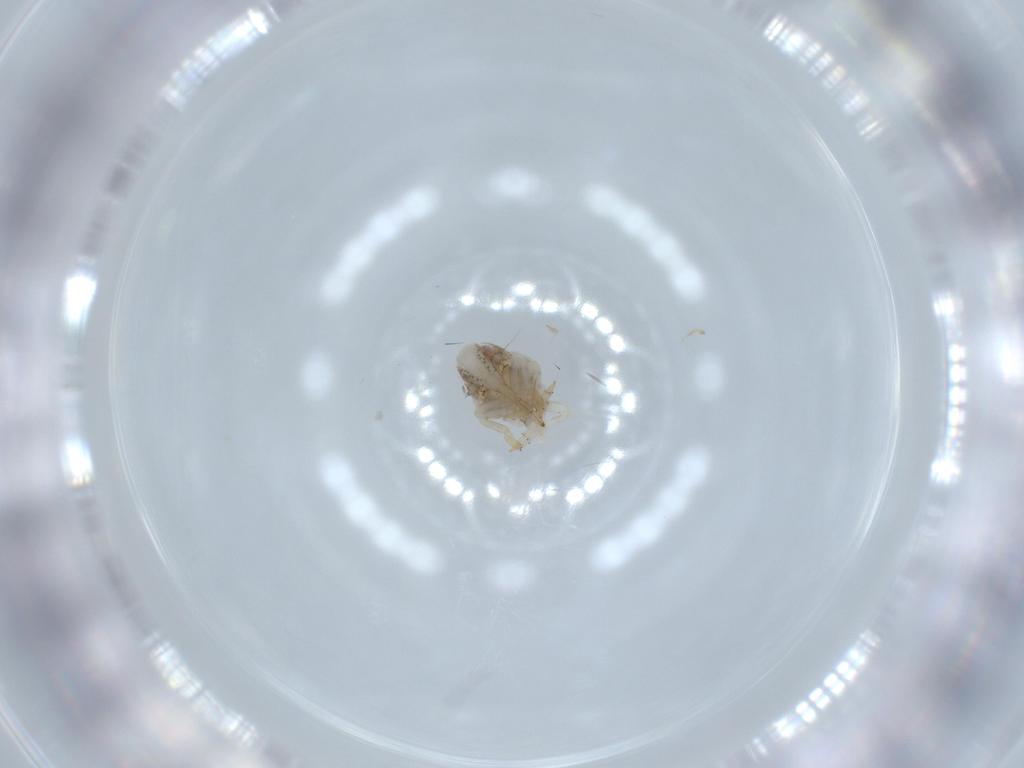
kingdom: Animalia
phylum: Arthropoda
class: Insecta
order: Hemiptera
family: Acanaloniidae
